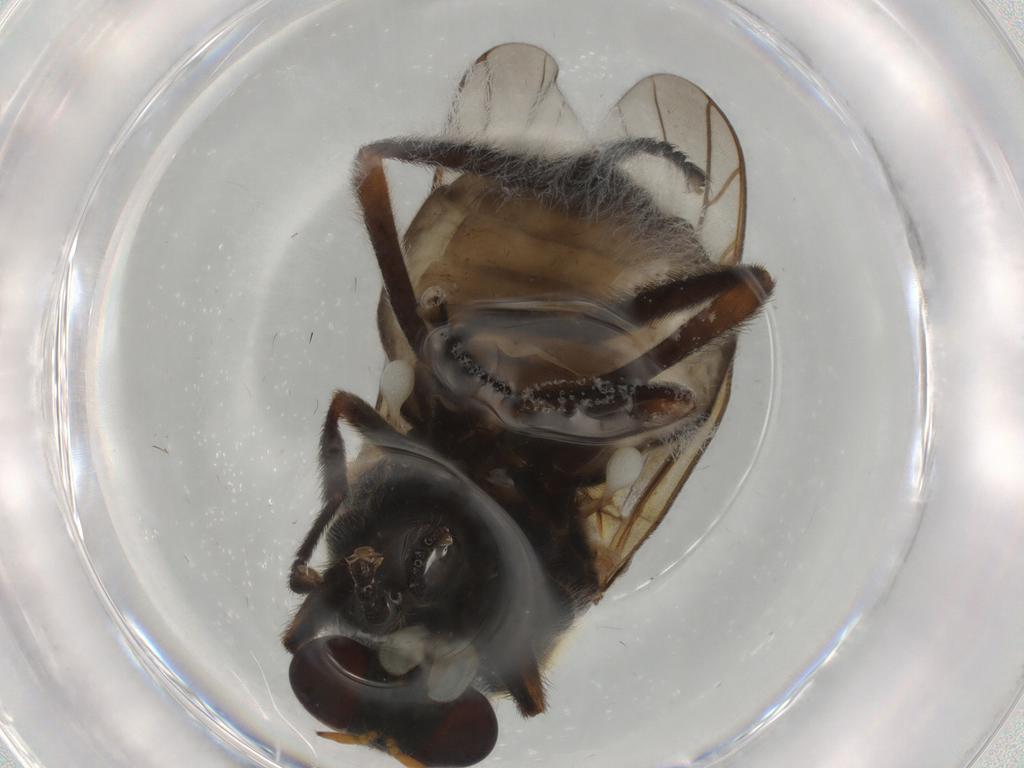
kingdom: Animalia
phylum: Arthropoda
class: Insecta
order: Diptera
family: Stratiomyidae
